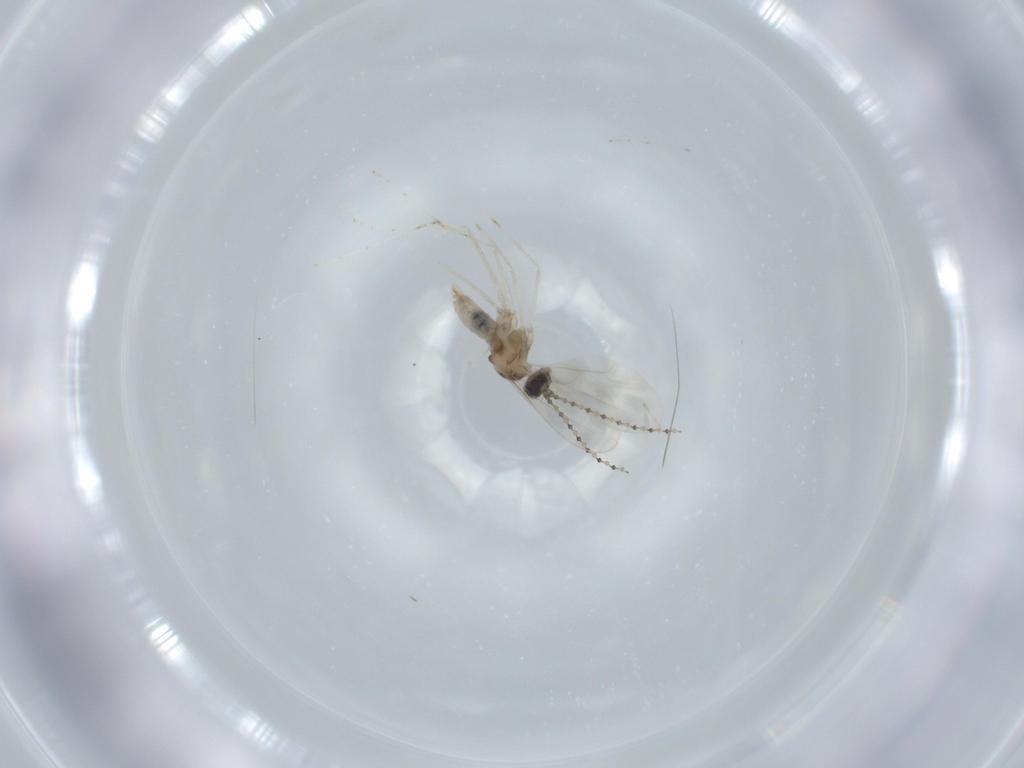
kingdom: Animalia
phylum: Arthropoda
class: Insecta
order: Diptera
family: Cecidomyiidae
